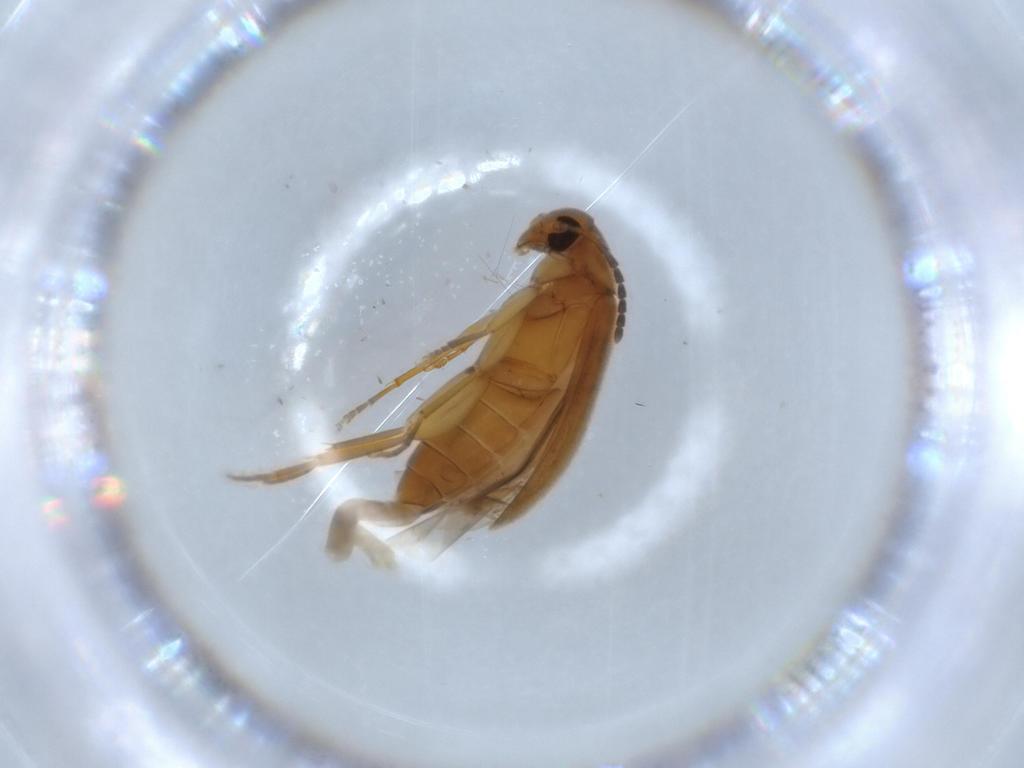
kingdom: Animalia
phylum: Arthropoda
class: Insecta
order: Coleoptera
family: Scraptiidae
